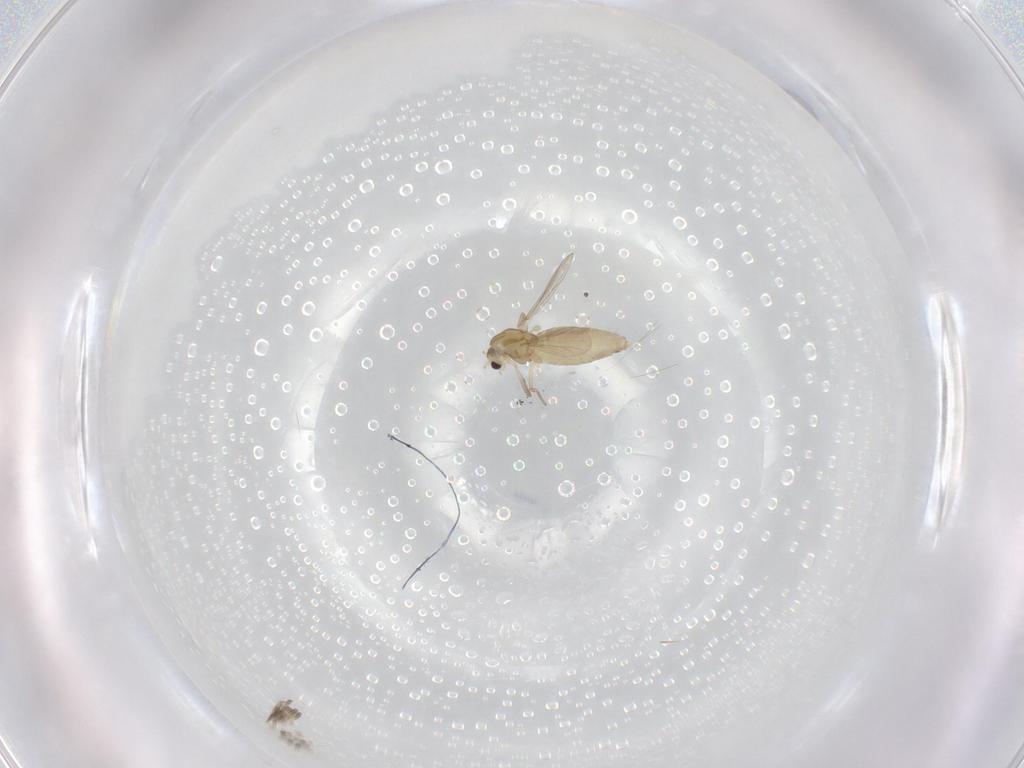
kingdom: Animalia
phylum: Arthropoda
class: Insecta
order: Diptera
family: Chironomidae
